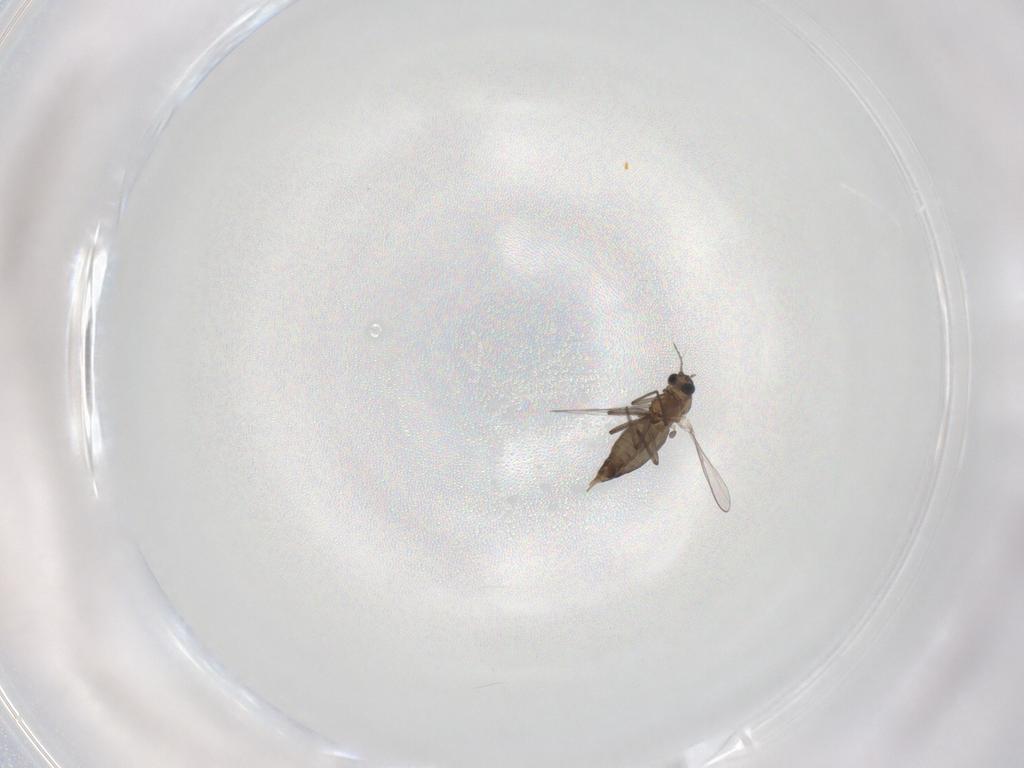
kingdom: Animalia
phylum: Arthropoda
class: Insecta
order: Diptera
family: Chironomidae
